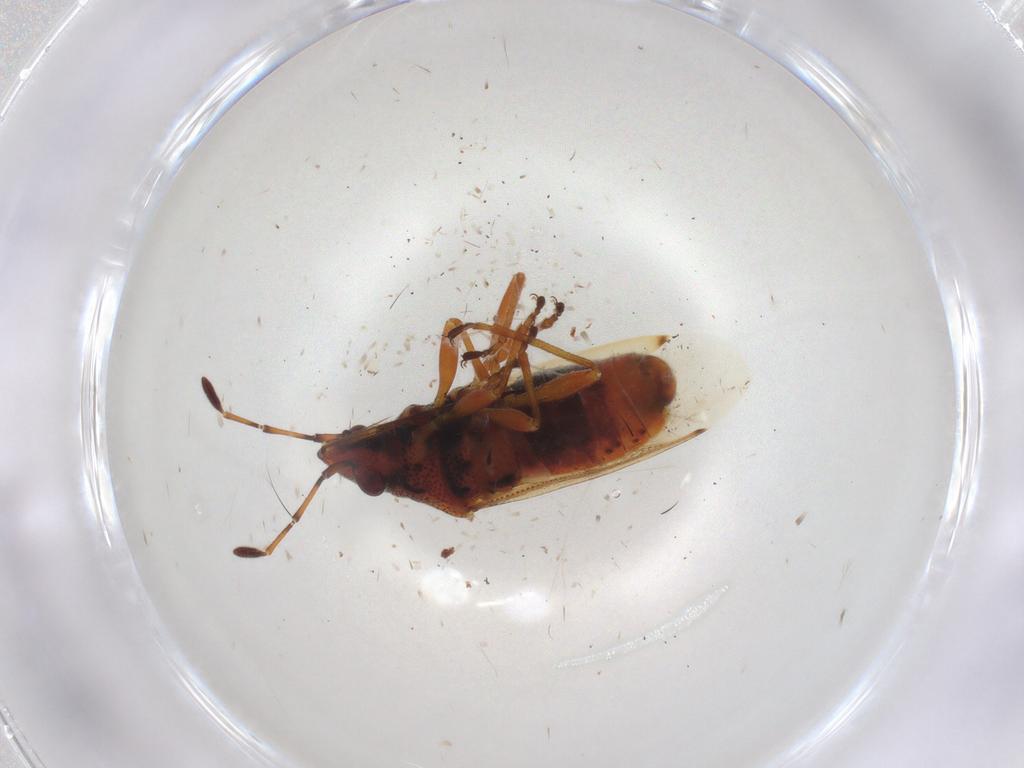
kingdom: Animalia
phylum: Arthropoda
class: Insecta
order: Hemiptera
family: Lygaeidae
